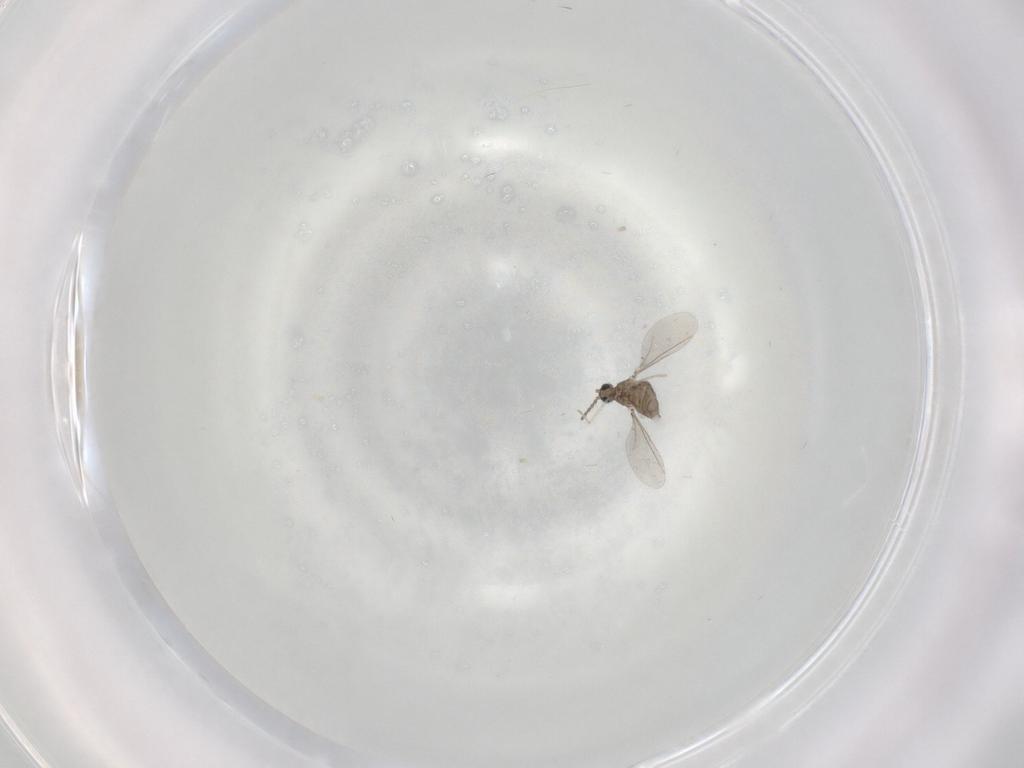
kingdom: Animalia
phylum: Arthropoda
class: Insecta
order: Diptera
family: Cecidomyiidae
